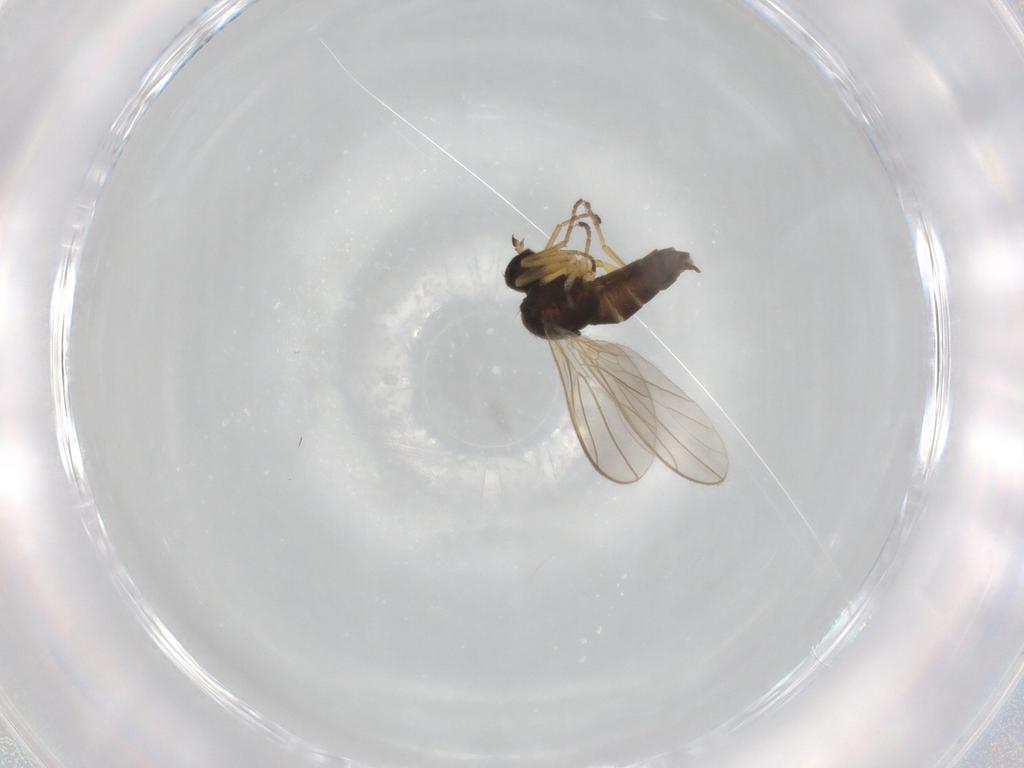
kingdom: Animalia
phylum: Arthropoda
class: Insecta
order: Diptera
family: Hybotidae
